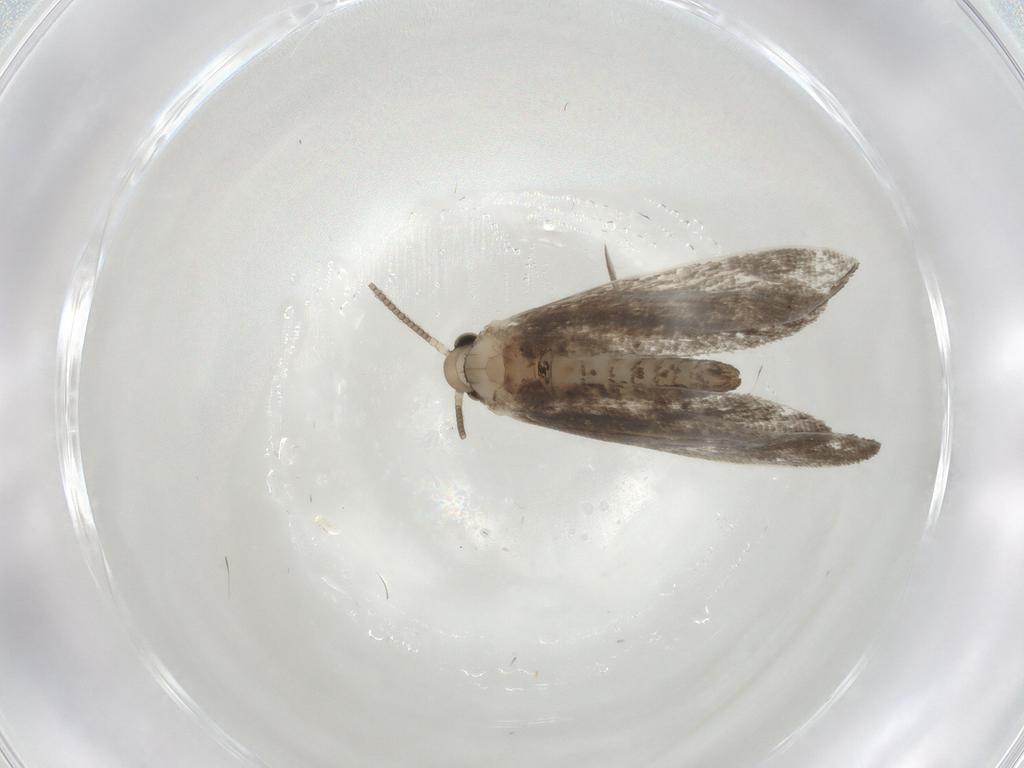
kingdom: Animalia
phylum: Arthropoda
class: Insecta
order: Lepidoptera
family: Nymphalidae
